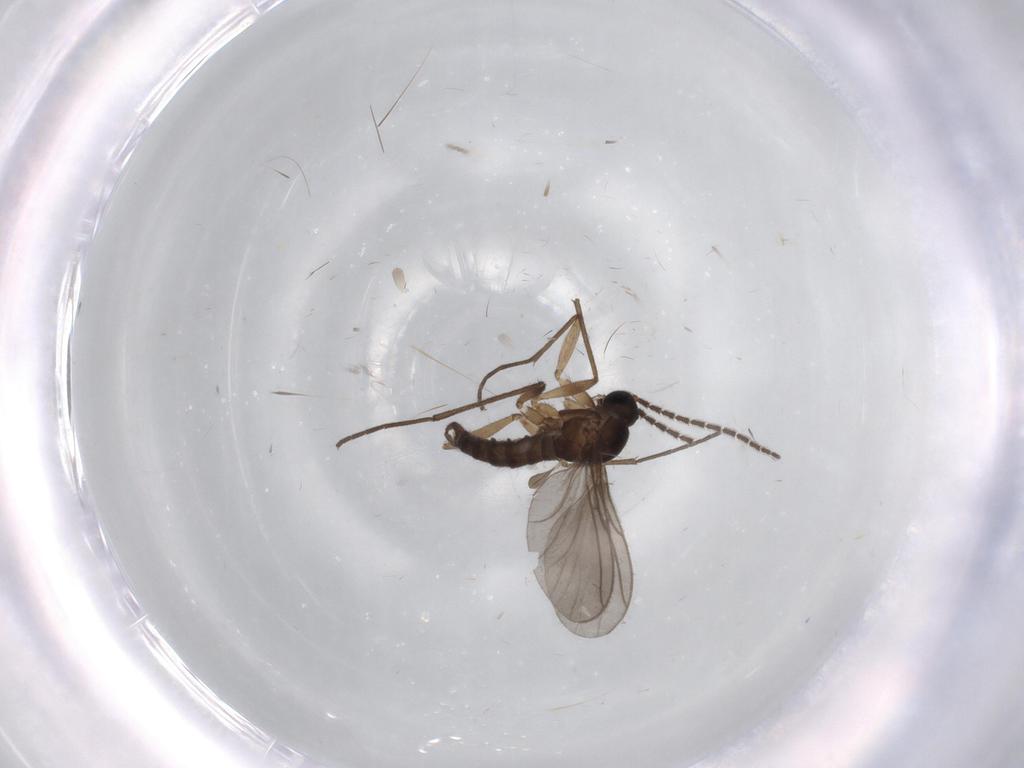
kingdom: Animalia
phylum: Arthropoda
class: Insecta
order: Diptera
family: Sciaridae
